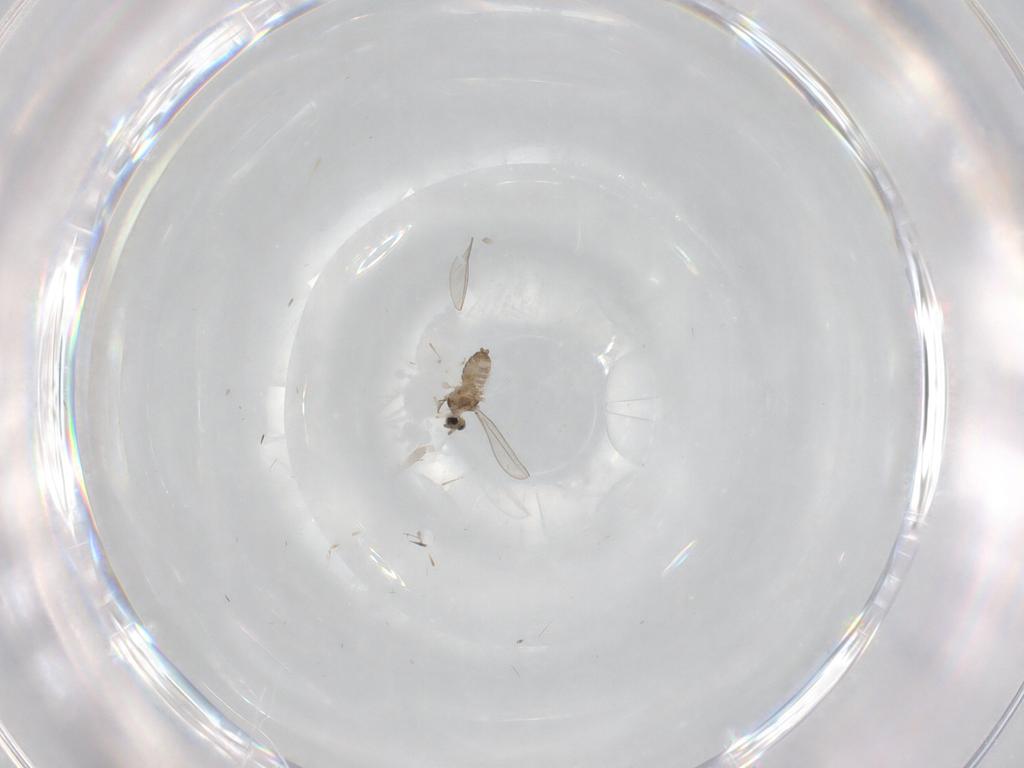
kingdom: Animalia
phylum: Arthropoda
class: Insecta
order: Diptera
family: Cecidomyiidae
